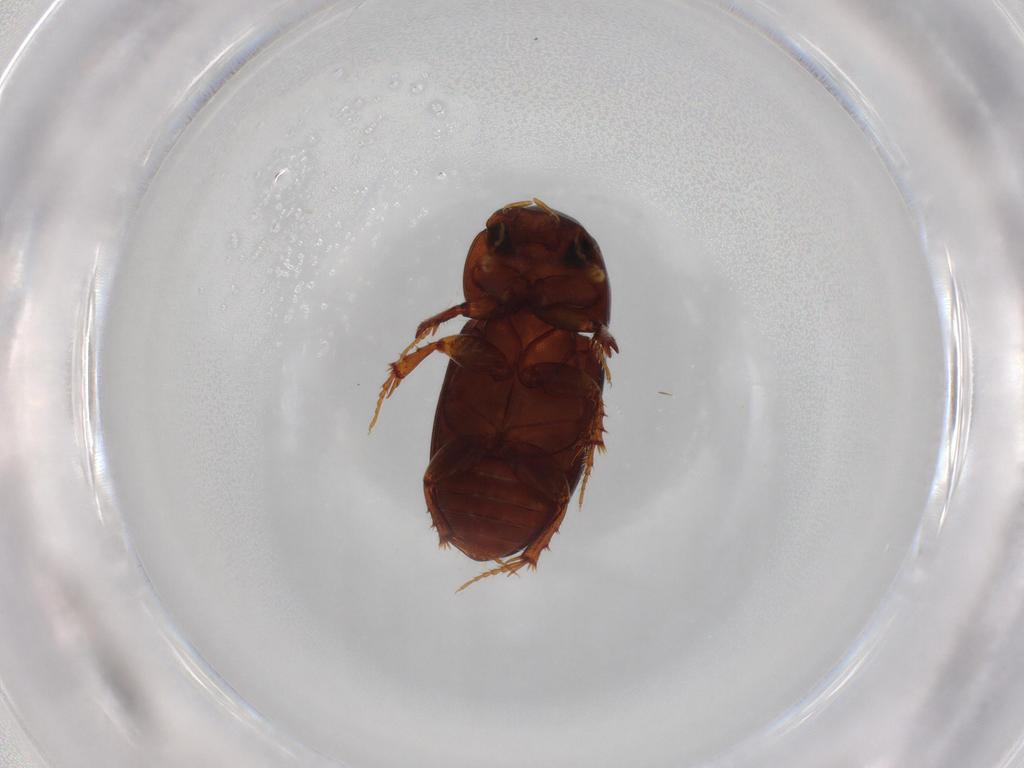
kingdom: Animalia
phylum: Arthropoda
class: Insecta
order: Coleoptera
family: Scarabaeidae
